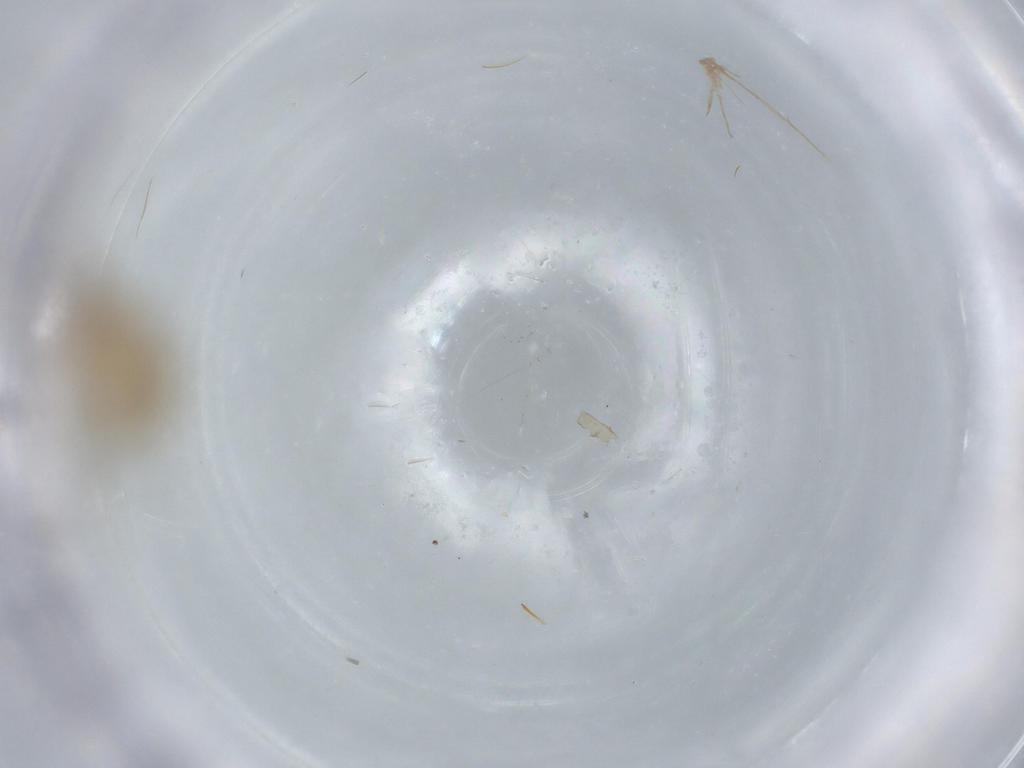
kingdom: Animalia
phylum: Arthropoda
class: Insecta
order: Blattodea
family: Ectobiidae
